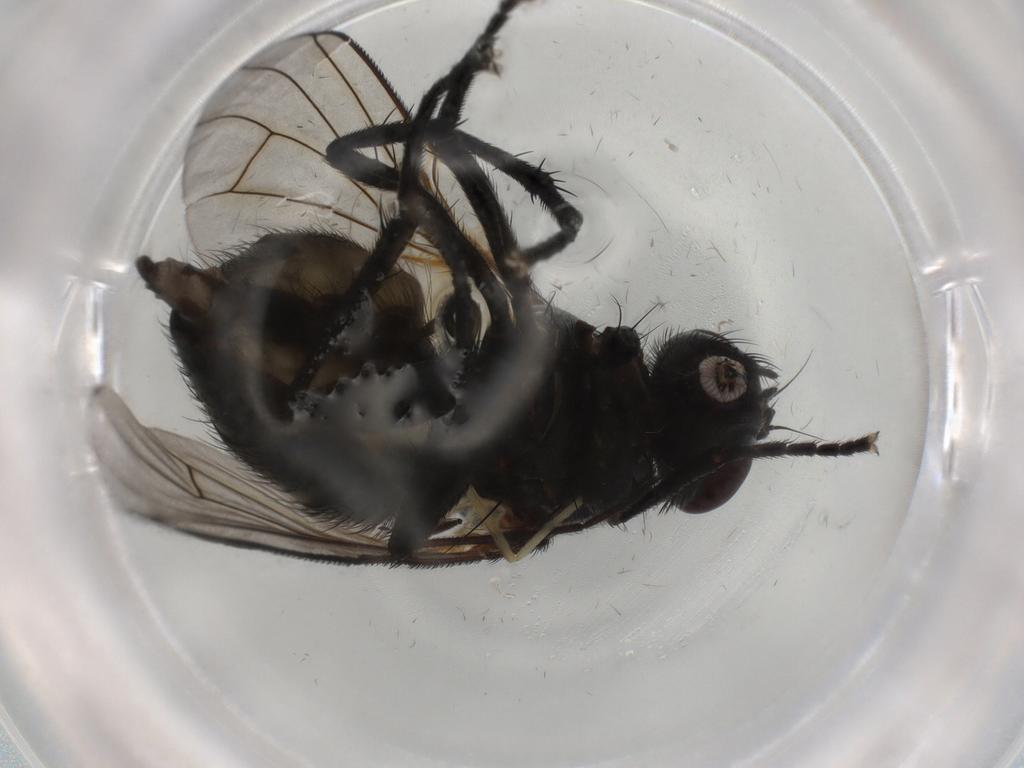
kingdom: Animalia
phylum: Arthropoda
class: Insecta
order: Diptera
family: Muscidae
